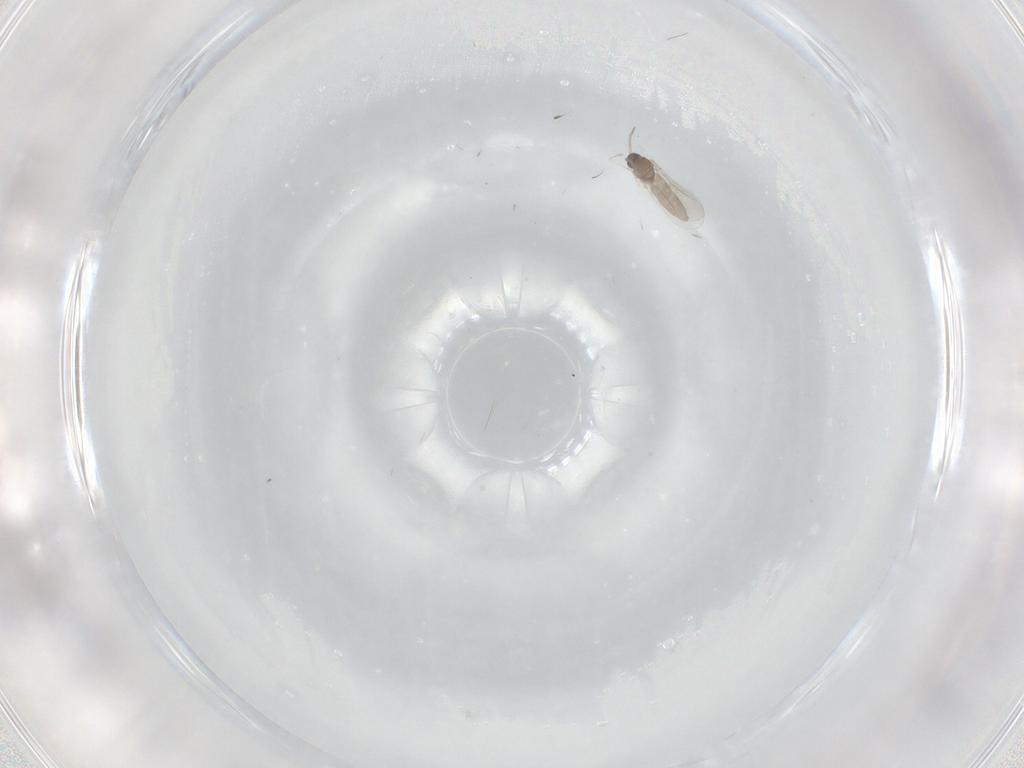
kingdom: Animalia
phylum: Arthropoda
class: Insecta
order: Diptera
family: Cecidomyiidae
